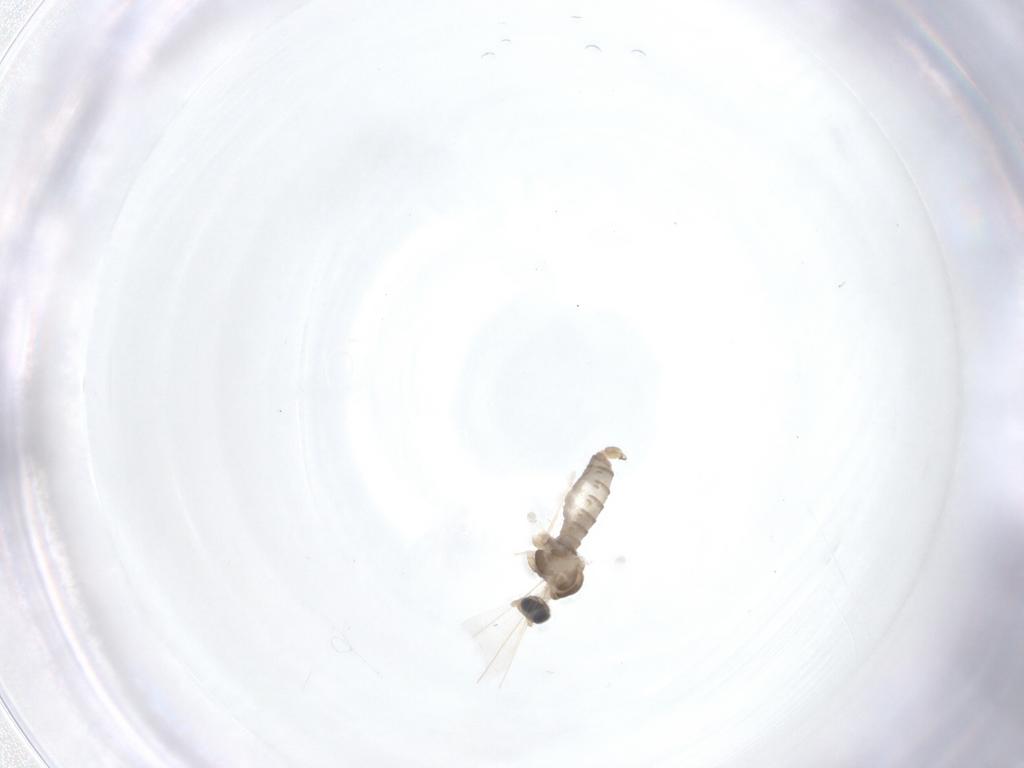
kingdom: Animalia
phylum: Arthropoda
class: Insecta
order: Diptera
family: Cecidomyiidae
